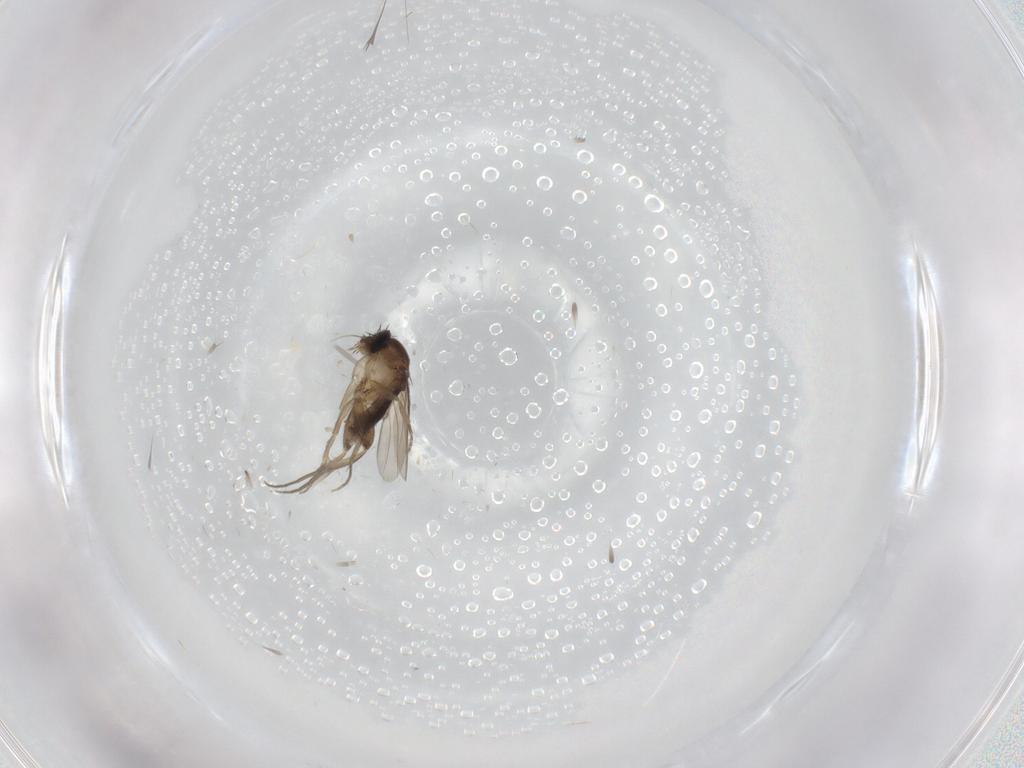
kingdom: Animalia
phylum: Arthropoda
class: Insecta
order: Diptera
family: Phoridae
